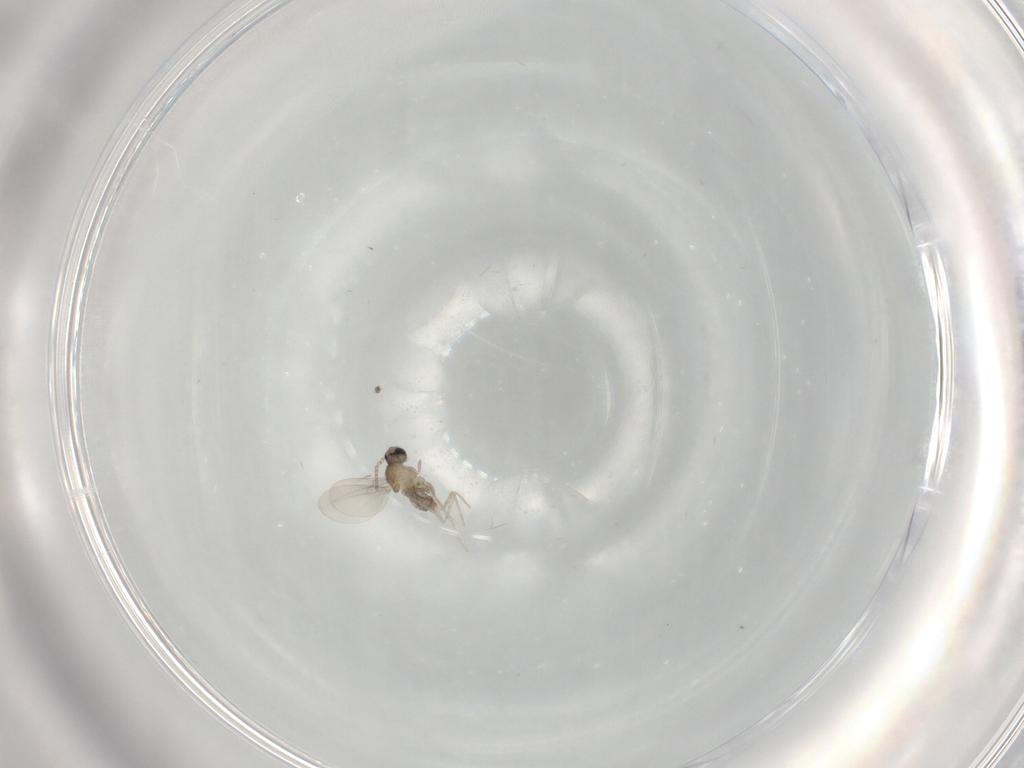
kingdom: Animalia
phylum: Arthropoda
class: Insecta
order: Diptera
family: Cecidomyiidae
